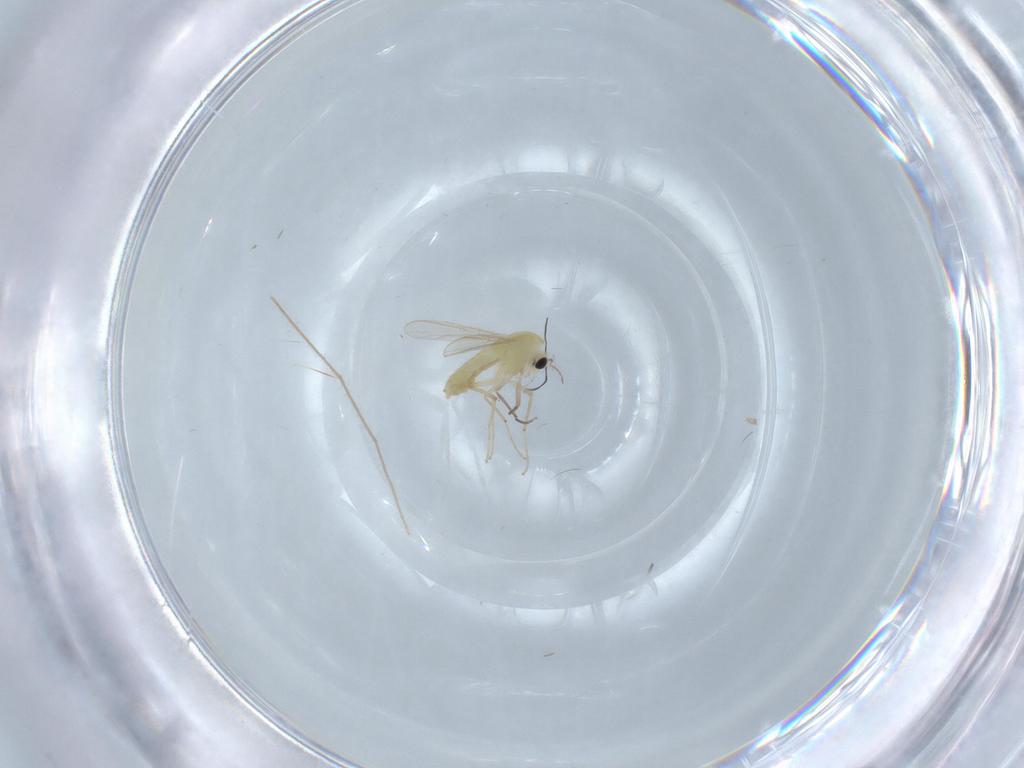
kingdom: Animalia
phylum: Arthropoda
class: Insecta
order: Diptera
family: Chironomidae
